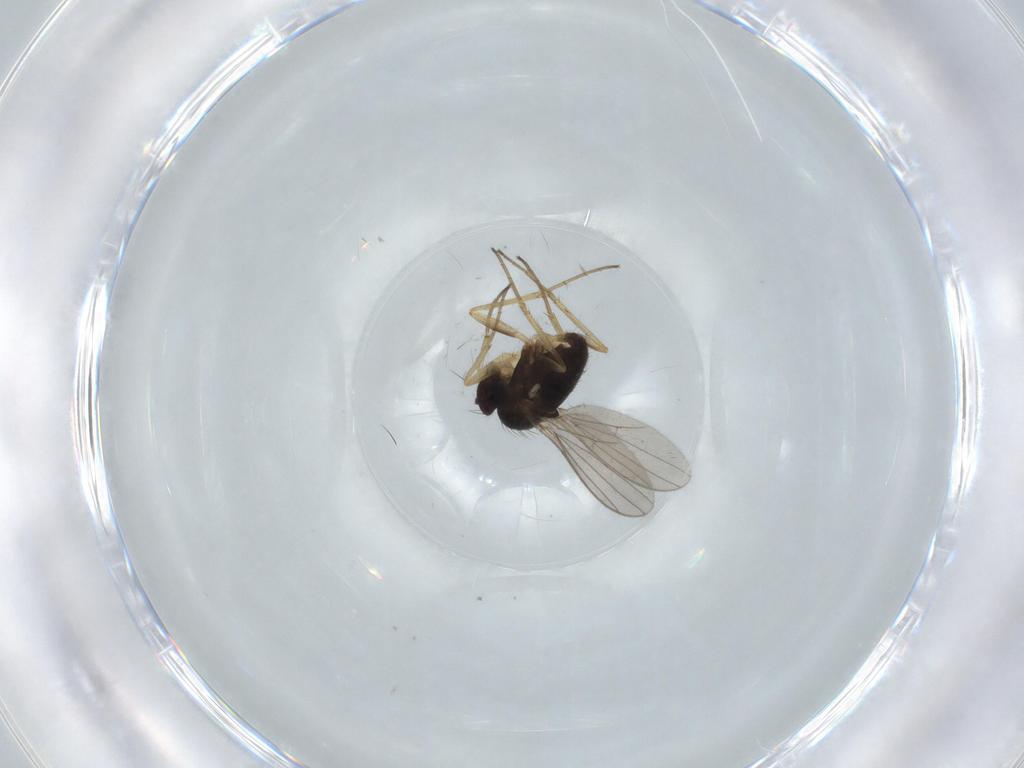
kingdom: Animalia
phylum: Arthropoda
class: Insecta
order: Diptera
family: Dolichopodidae
